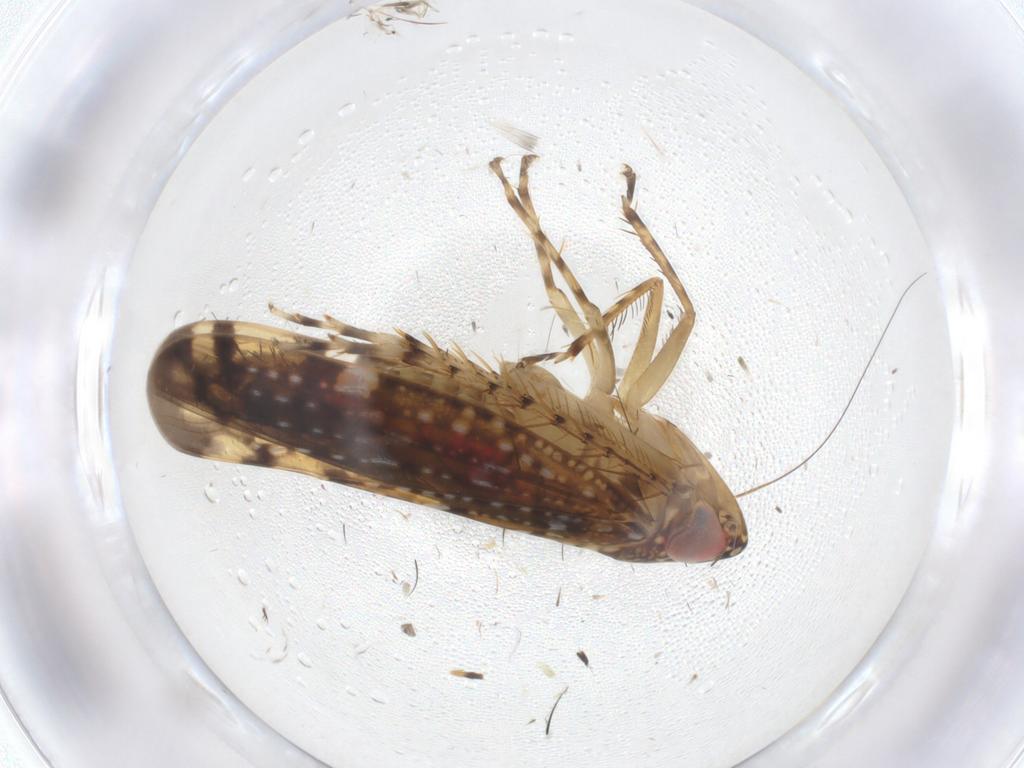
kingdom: Animalia
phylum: Arthropoda
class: Insecta
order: Hemiptera
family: Cicadellidae
